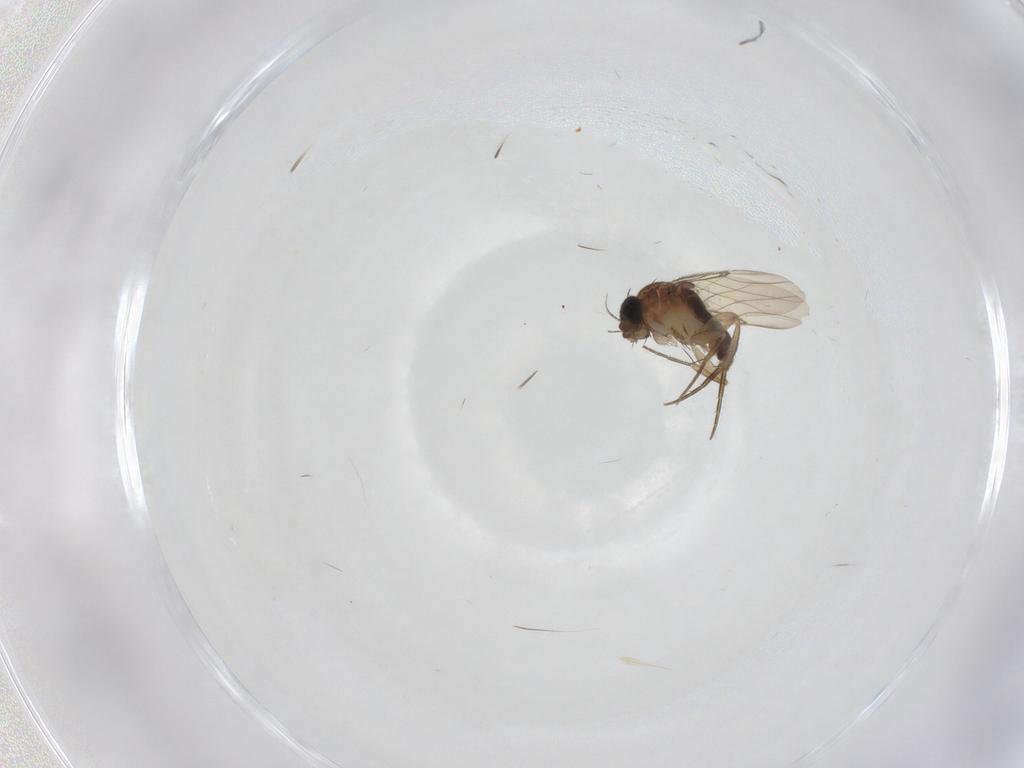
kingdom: Animalia
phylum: Arthropoda
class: Insecta
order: Diptera
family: Phoridae
